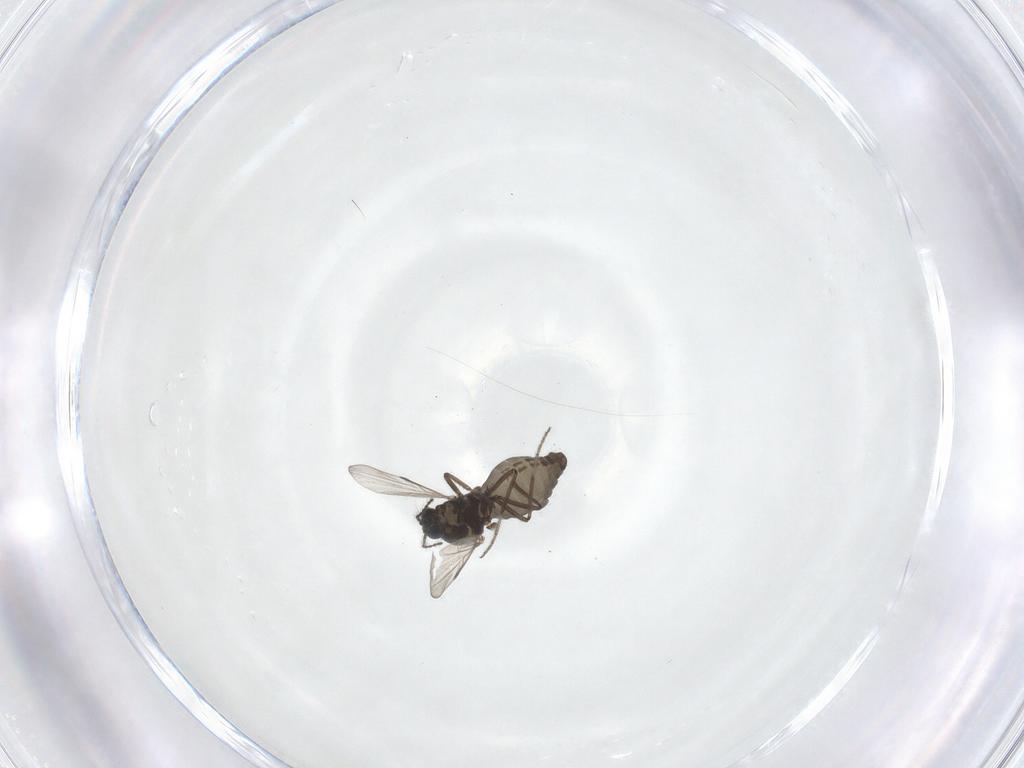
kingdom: Animalia
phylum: Arthropoda
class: Insecta
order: Diptera
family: Ceratopogonidae
